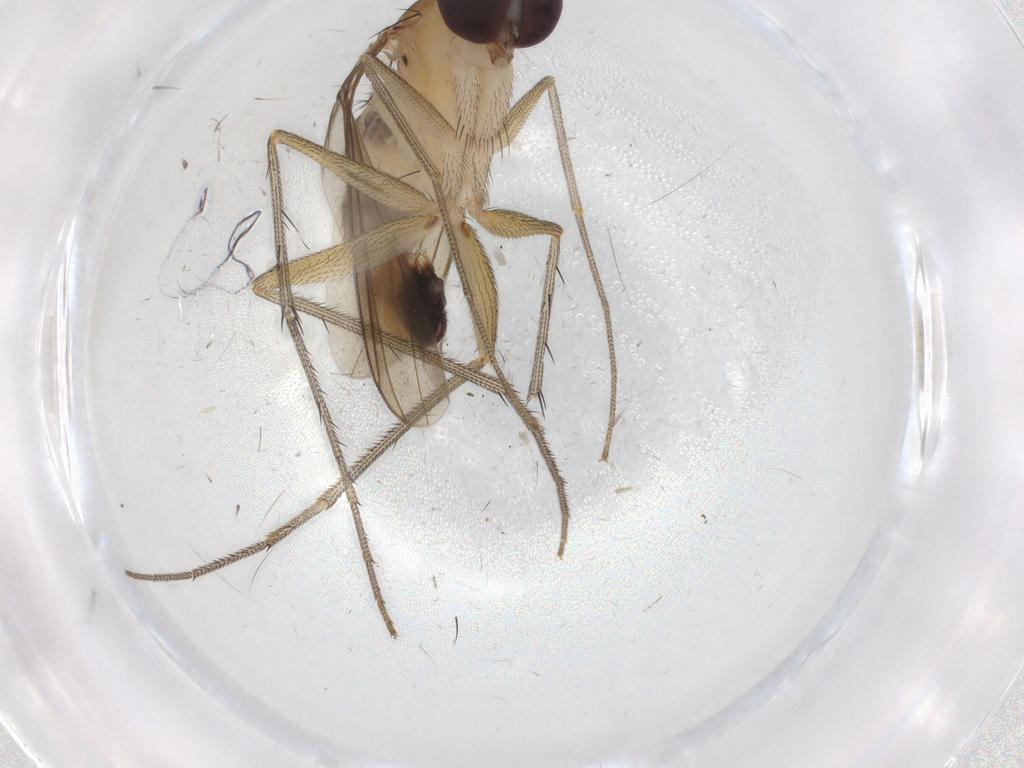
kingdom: Animalia
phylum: Arthropoda
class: Insecta
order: Diptera
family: Chironomidae
